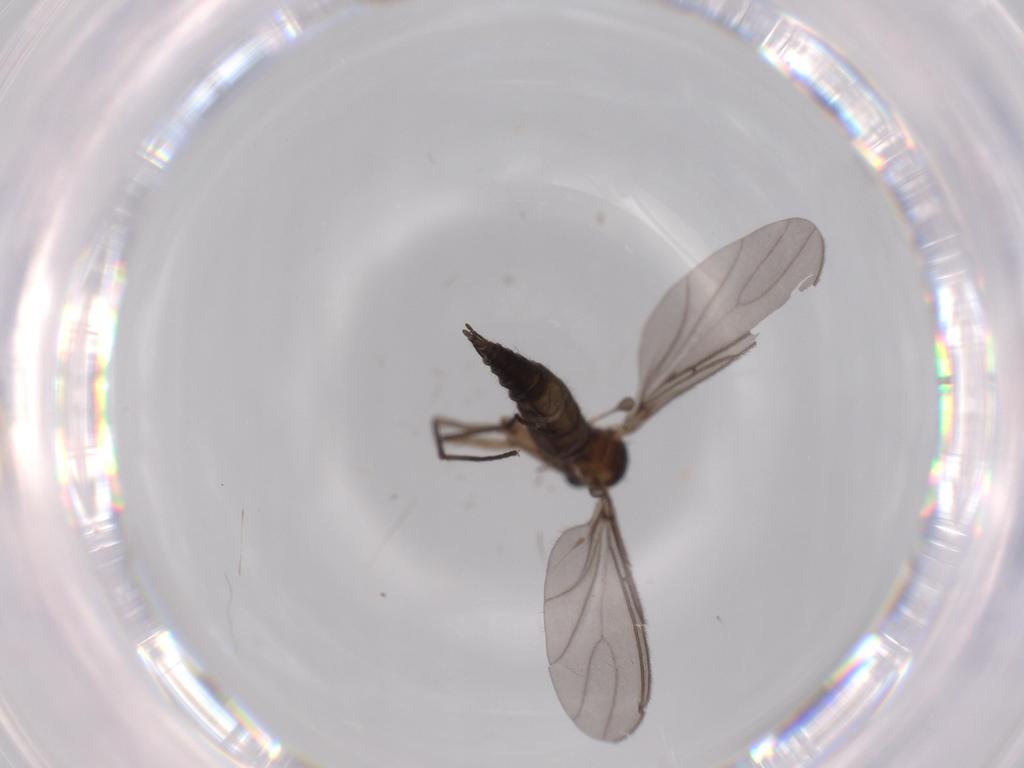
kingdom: Animalia
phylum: Arthropoda
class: Insecta
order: Diptera
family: Sciaridae
